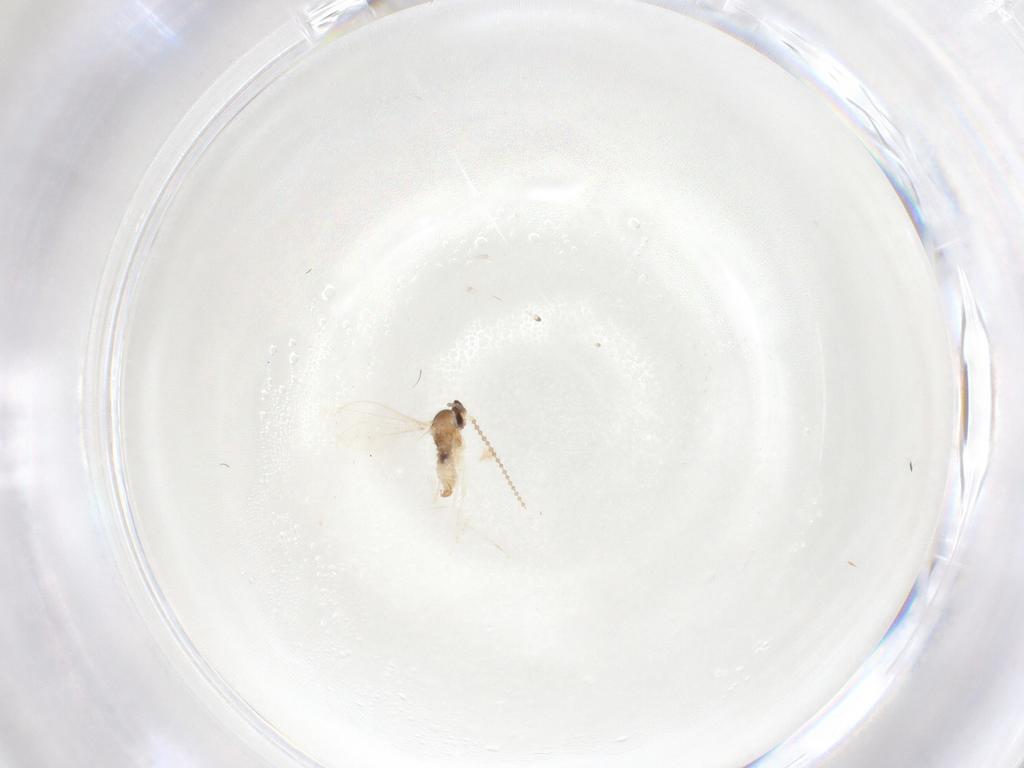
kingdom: Animalia
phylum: Arthropoda
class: Insecta
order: Diptera
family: Cecidomyiidae
